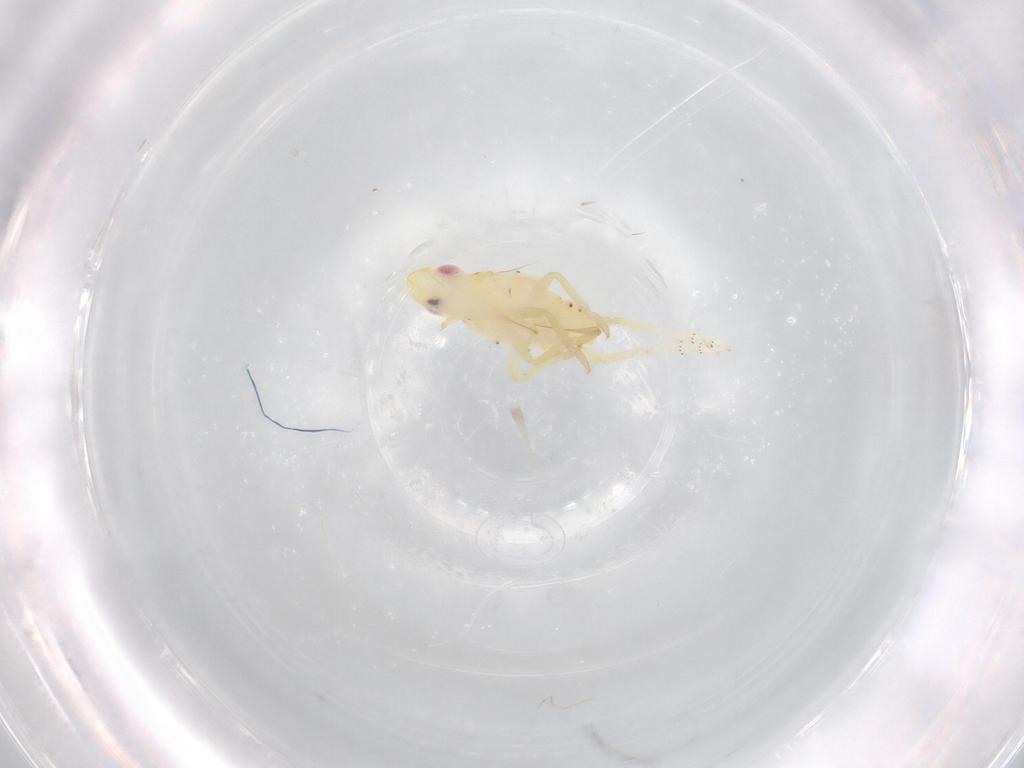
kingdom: Animalia
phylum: Arthropoda
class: Insecta
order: Hemiptera
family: Tropiduchidae
